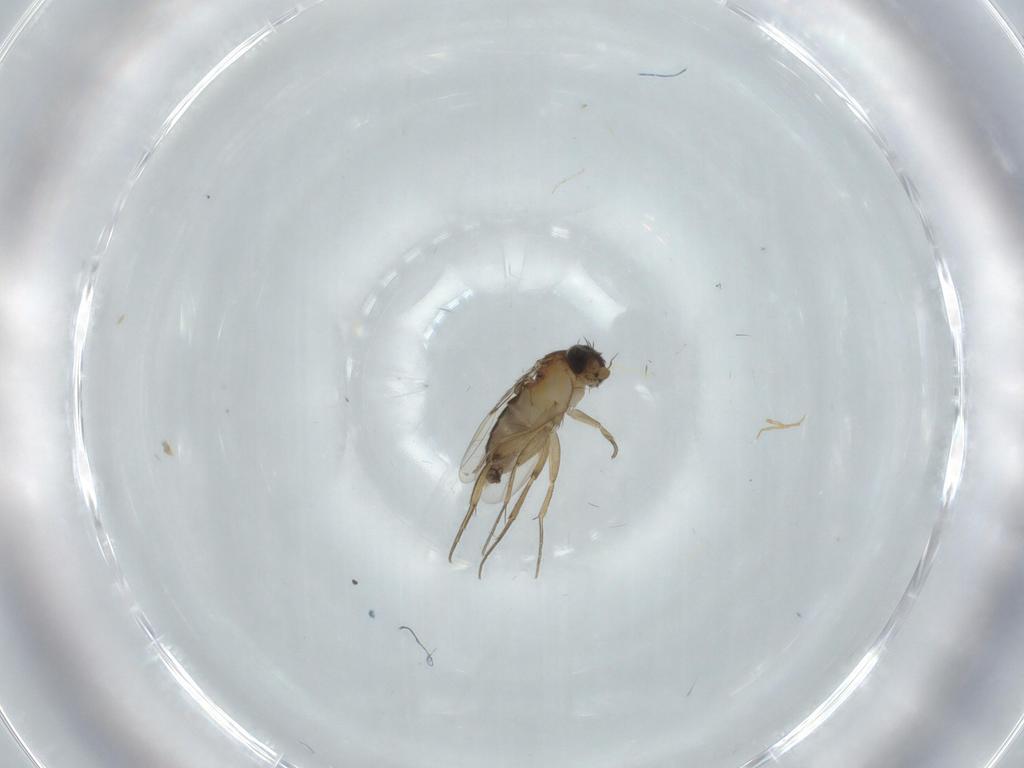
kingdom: Animalia
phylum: Arthropoda
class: Insecta
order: Diptera
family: Phoridae
